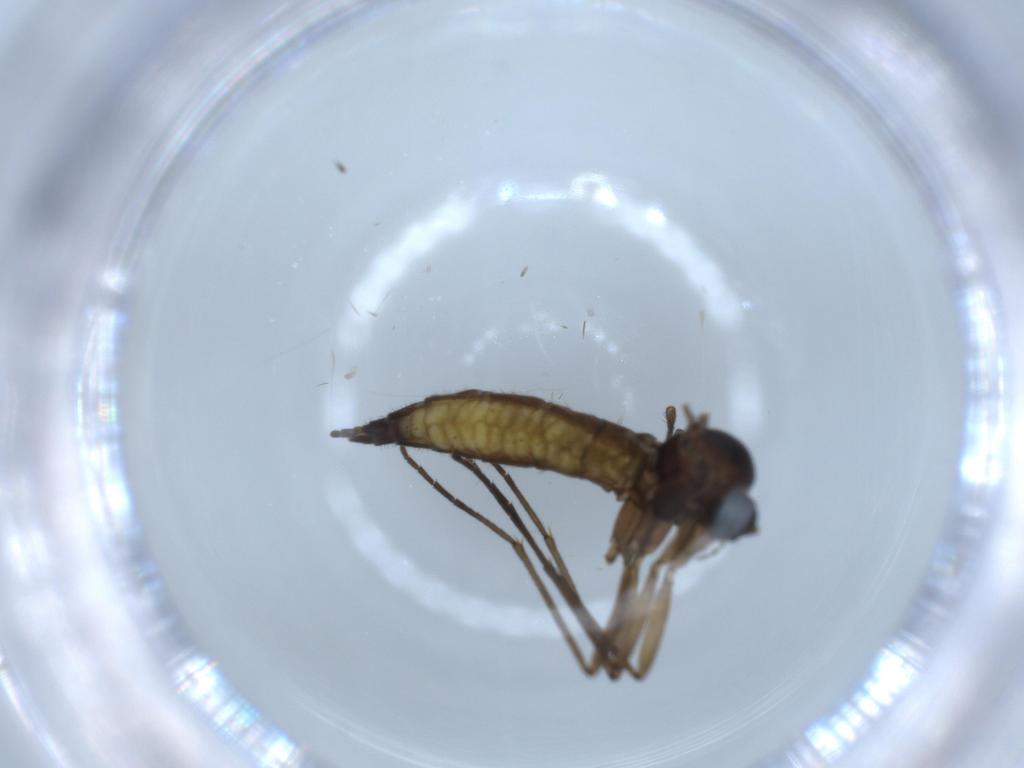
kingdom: Animalia
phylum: Arthropoda
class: Insecta
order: Diptera
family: Sciaridae
